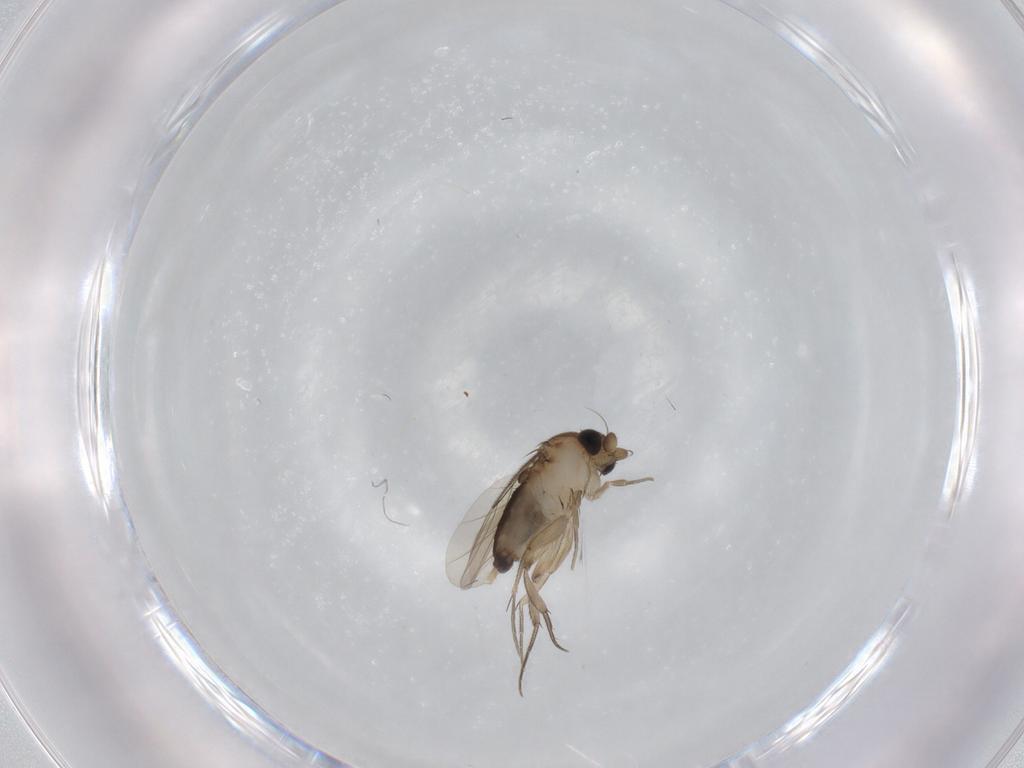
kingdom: Animalia
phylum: Arthropoda
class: Insecta
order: Diptera
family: Phoridae
